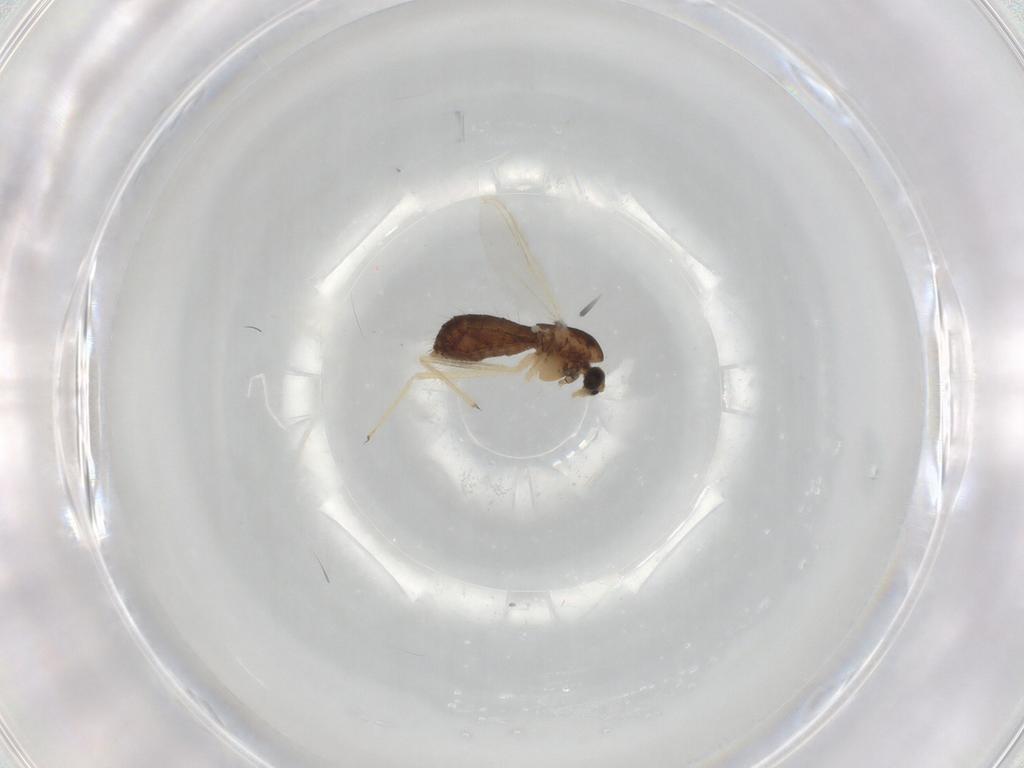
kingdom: Animalia
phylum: Arthropoda
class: Insecta
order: Diptera
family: Chironomidae
